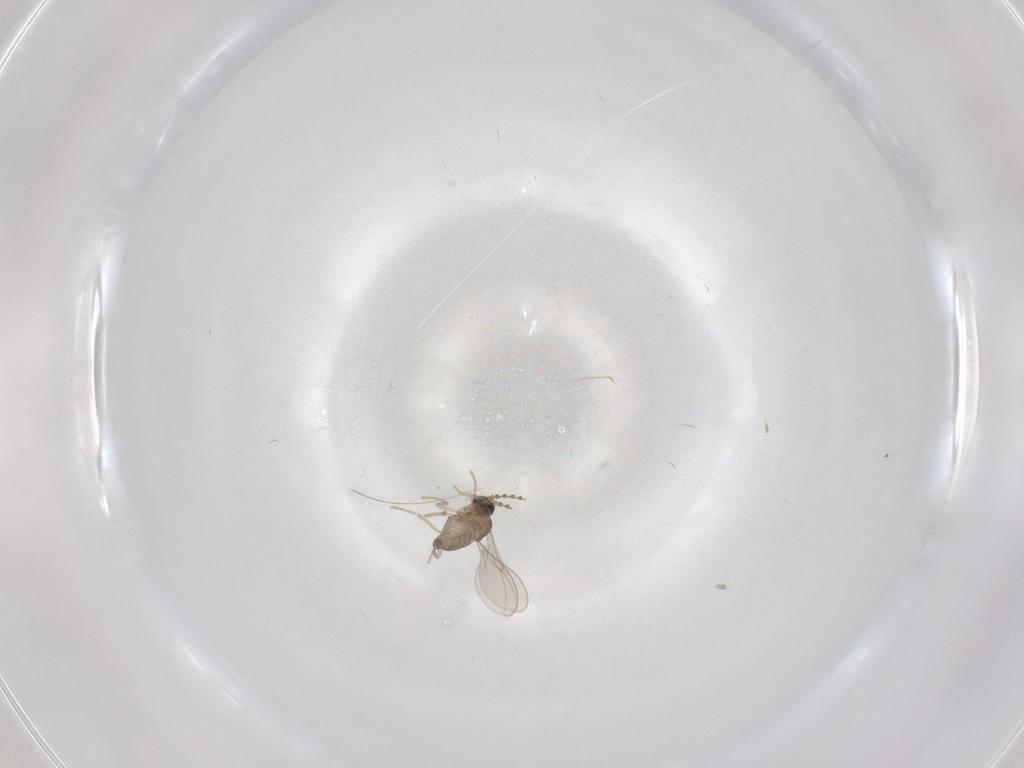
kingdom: Animalia
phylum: Arthropoda
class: Insecta
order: Diptera
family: Cecidomyiidae
